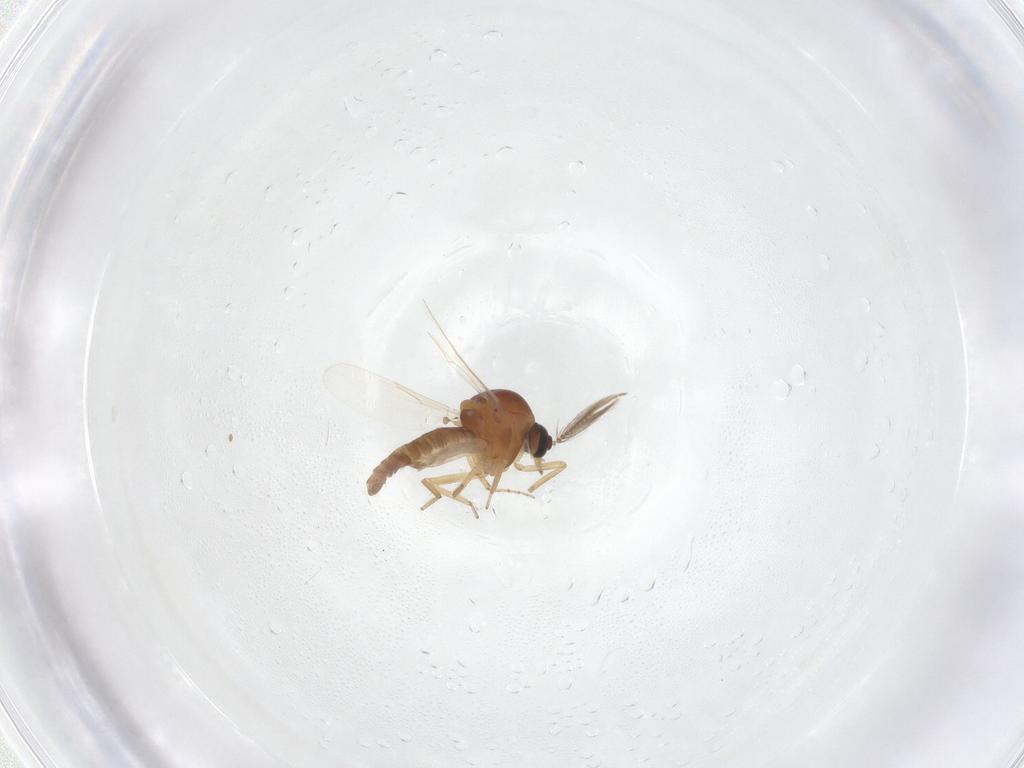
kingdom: Animalia
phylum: Arthropoda
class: Insecta
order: Diptera
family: Ceratopogonidae
